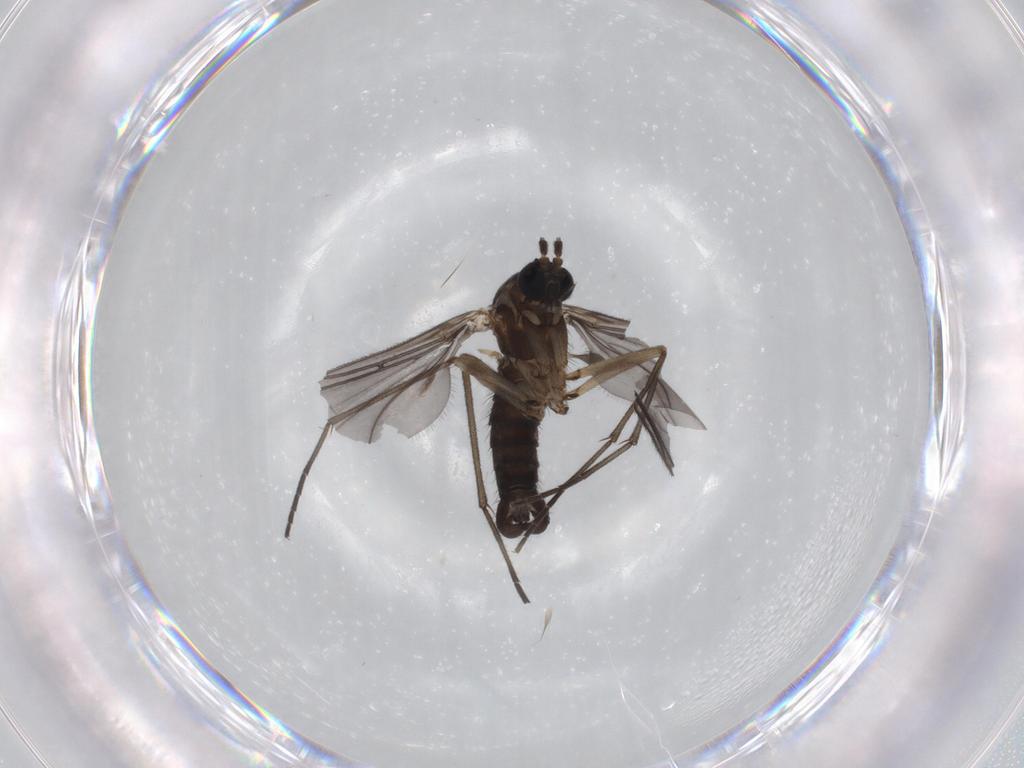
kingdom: Animalia
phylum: Arthropoda
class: Insecta
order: Diptera
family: Sciaridae
